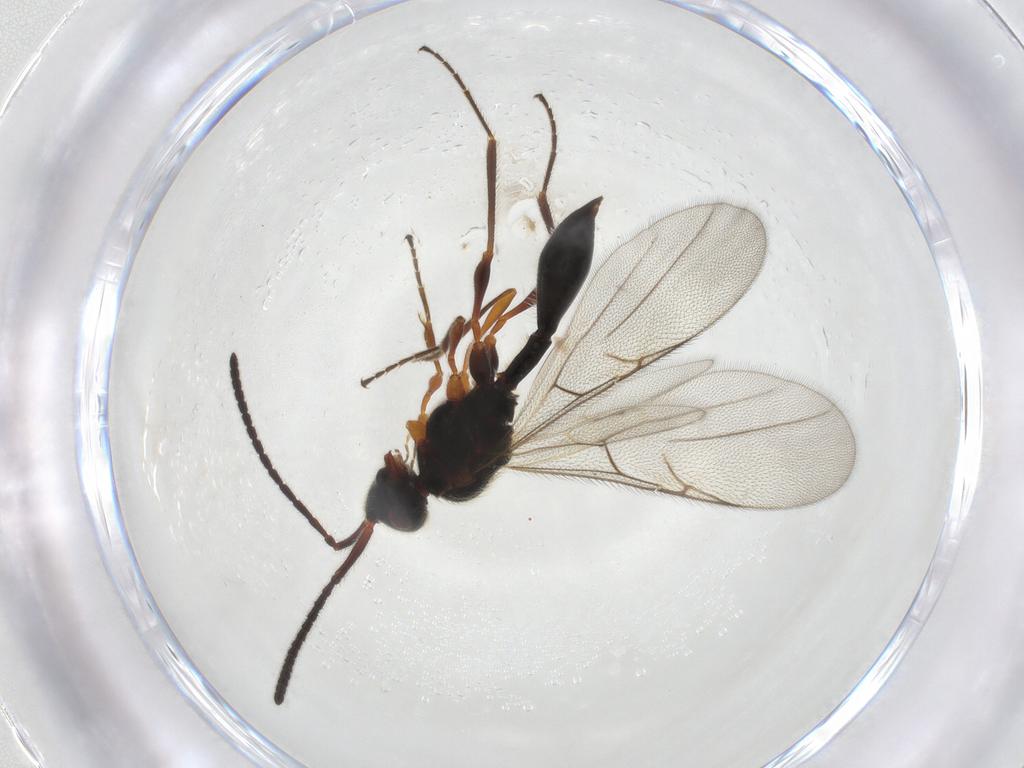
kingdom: Animalia
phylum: Arthropoda
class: Insecta
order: Hymenoptera
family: Diapriidae
